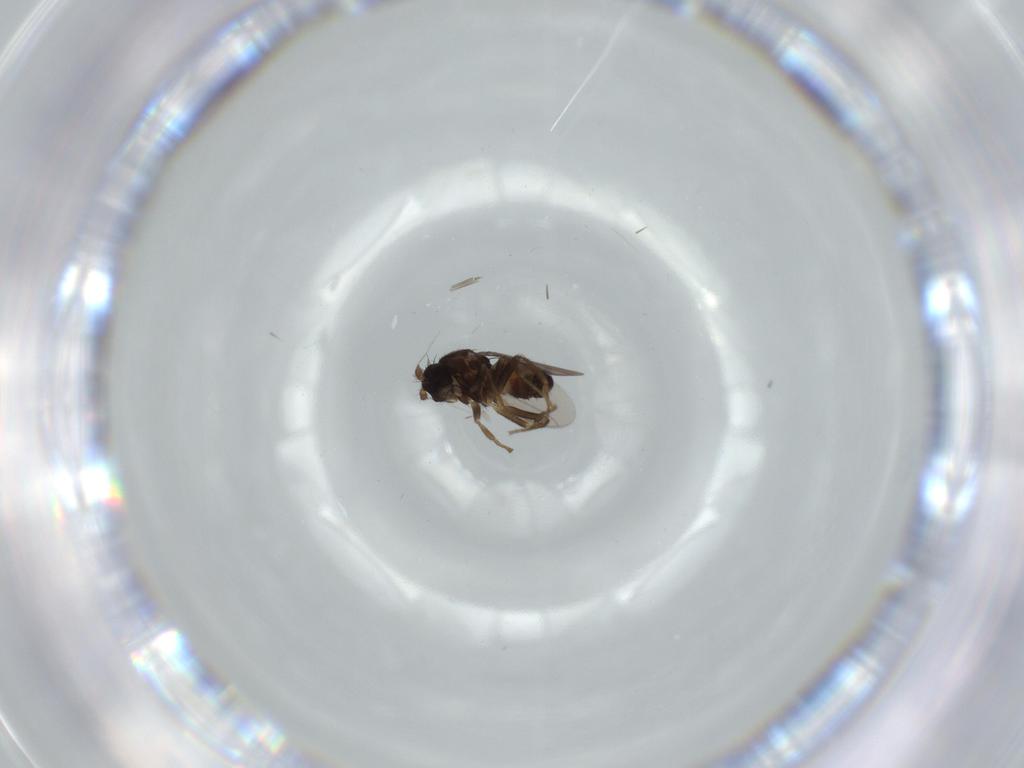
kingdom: Animalia
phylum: Arthropoda
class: Insecta
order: Diptera
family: Sphaeroceridae
